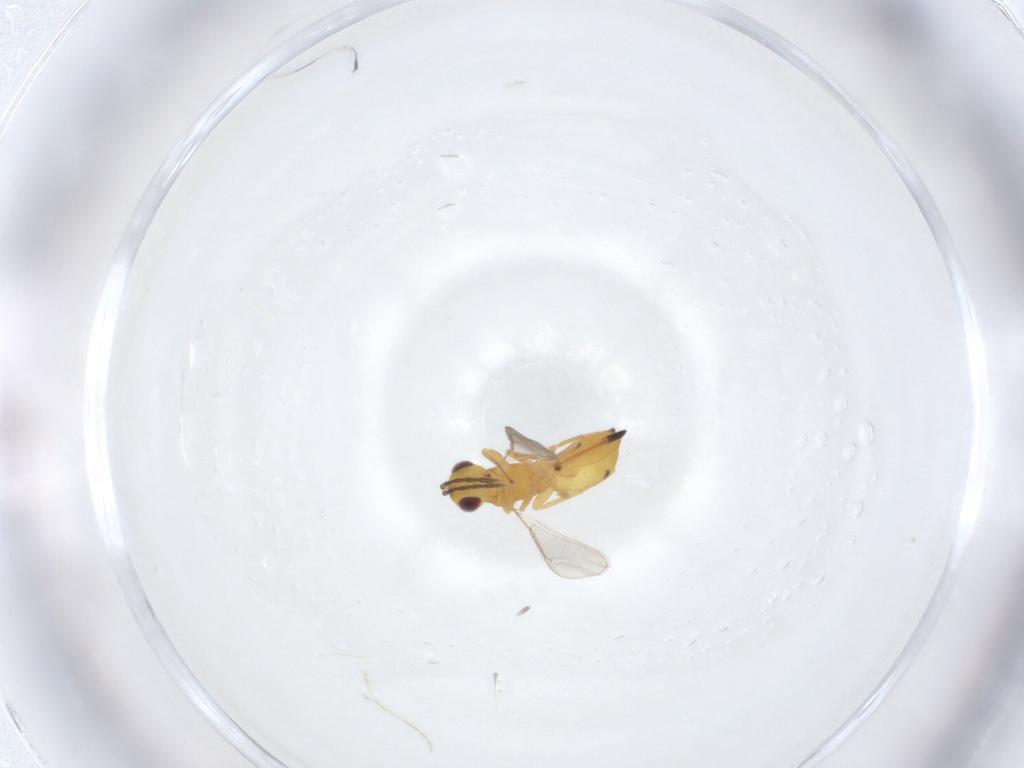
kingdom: Animalia
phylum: Arthropoda
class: Insecta
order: Hymenoptera
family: Eulophidae
